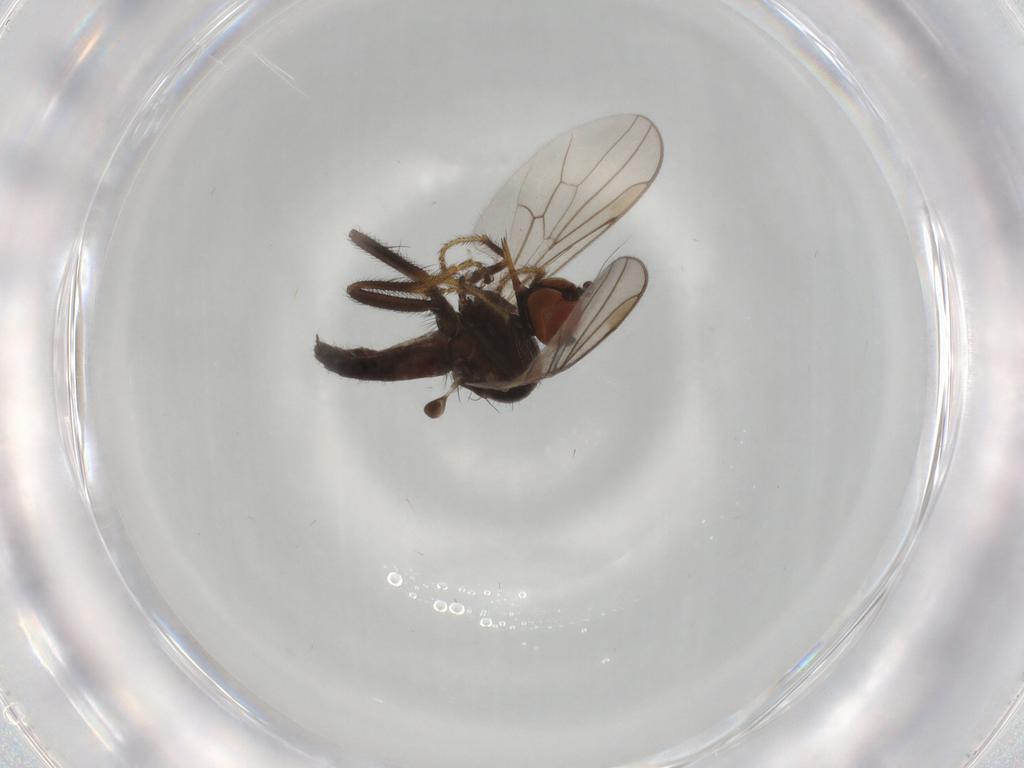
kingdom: Animalia
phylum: Arthropoda
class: Insecta
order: Diptera
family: Hybotidae
